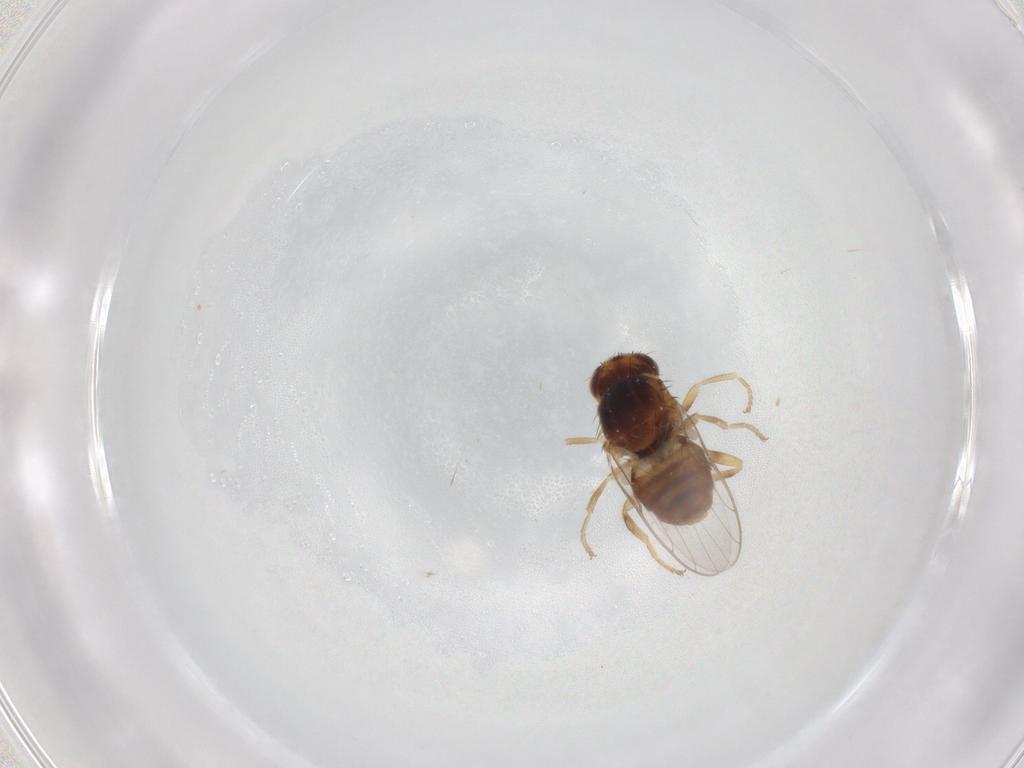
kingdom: Animalia
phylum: Arthropoda
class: Insecta
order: Diptera
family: Chloropidae
